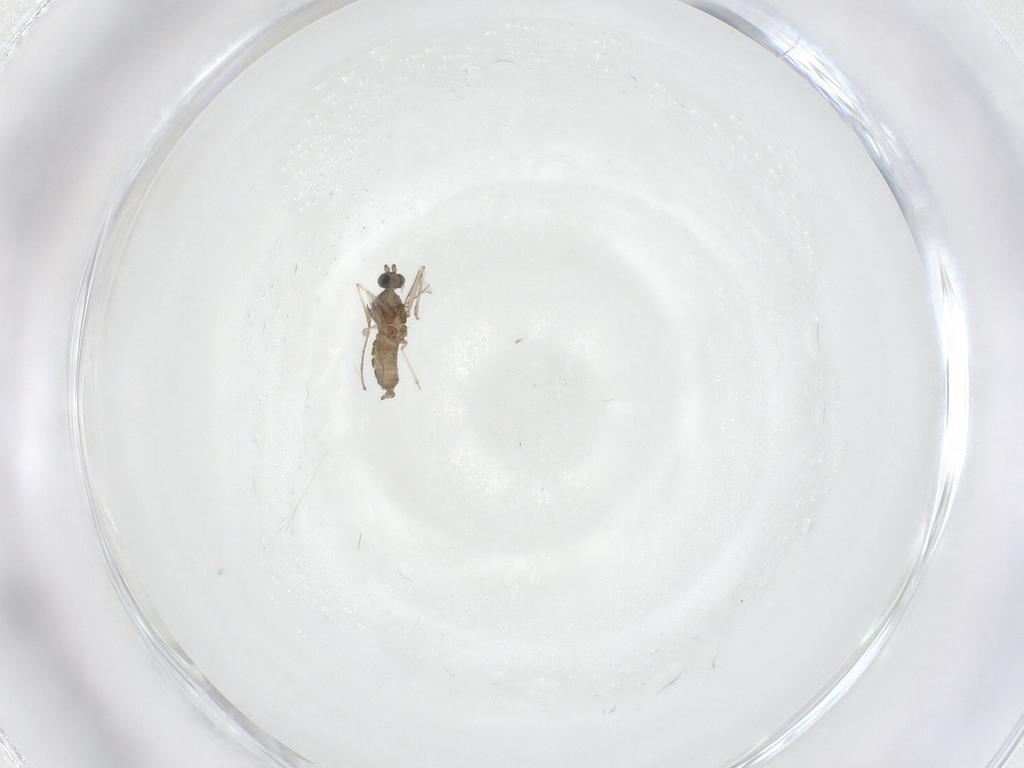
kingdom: Animalia
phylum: Arthropoda
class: Insecta
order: Diptera
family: Cecidomyiidae
